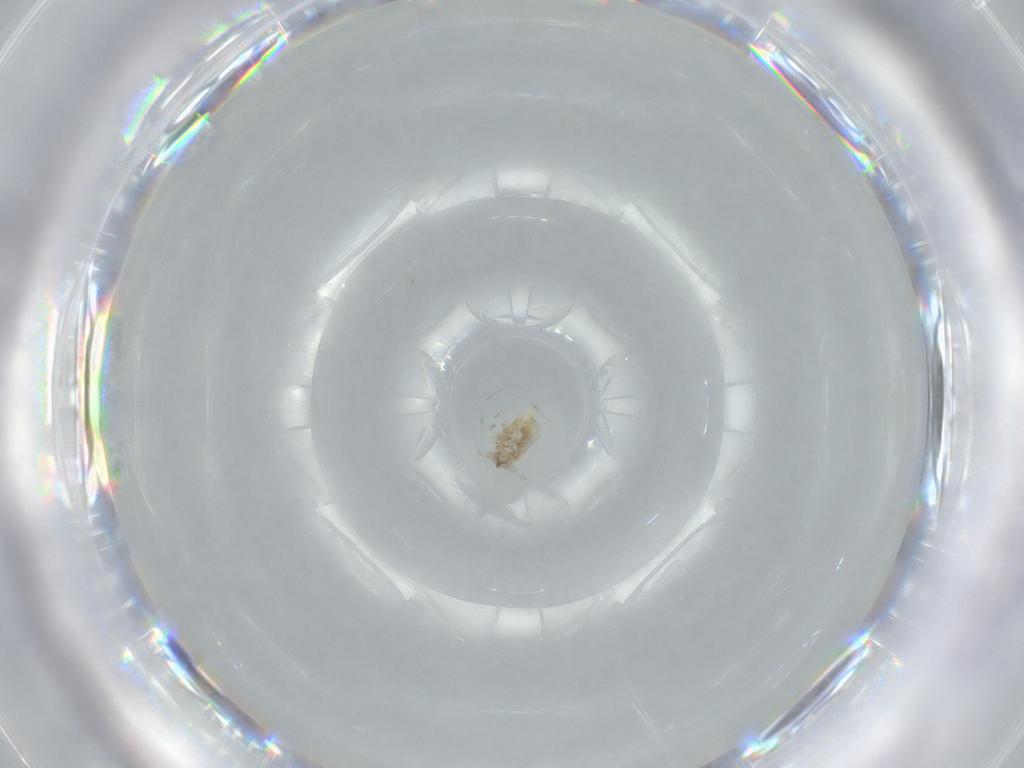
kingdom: Animalia
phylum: Arthropoda
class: Insecta
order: Neuroptera
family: Coniopterygidae
